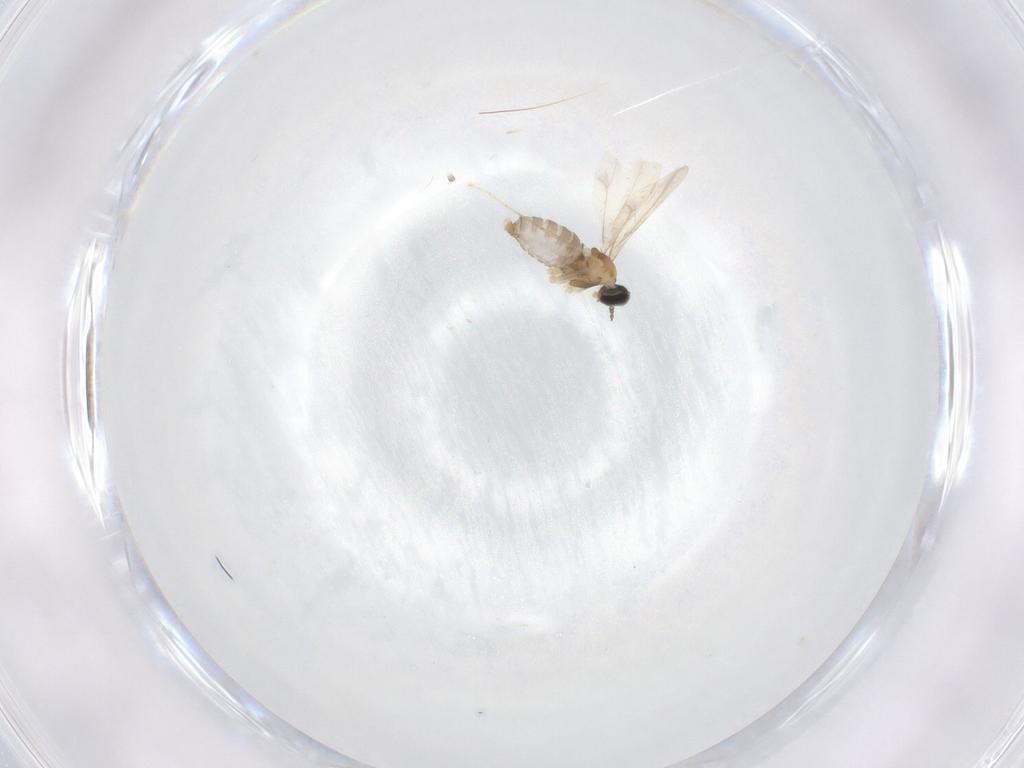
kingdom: Animalia
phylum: Arthropoda
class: Insecta
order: Diptera
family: Cecidomyiidae
